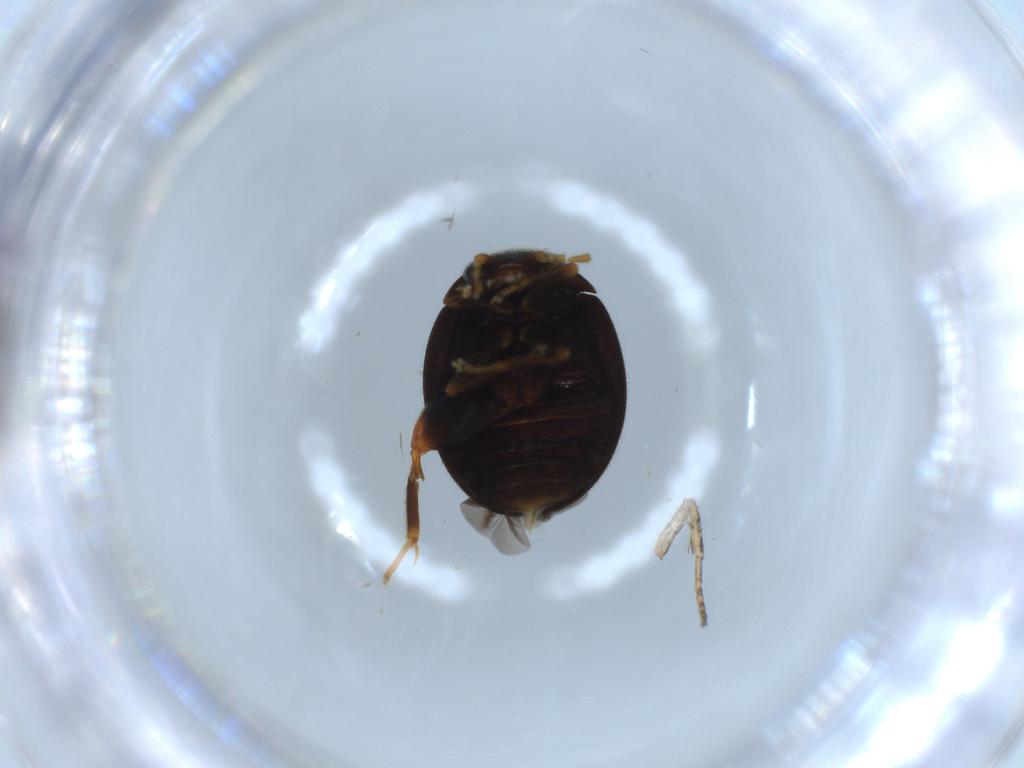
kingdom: Animalia
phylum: Arthropoda
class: Insecta
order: Coleoptera
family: Scirtidae
